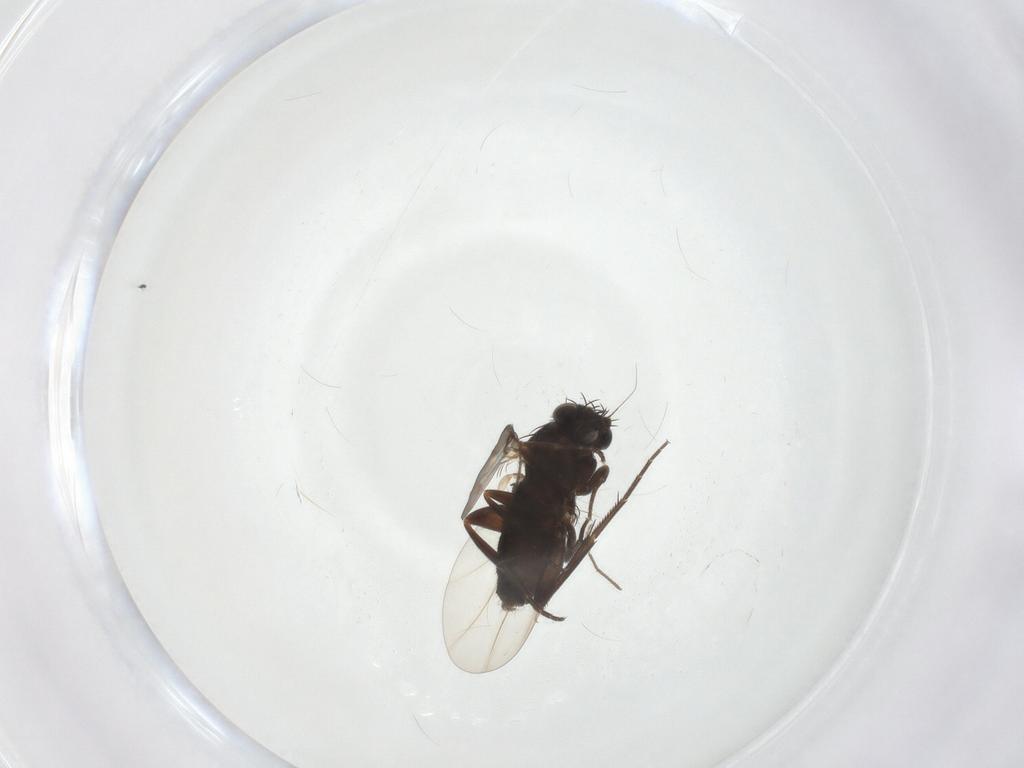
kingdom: Animalia
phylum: Arthropoda
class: Insecta
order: Diptera
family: Phoridae
